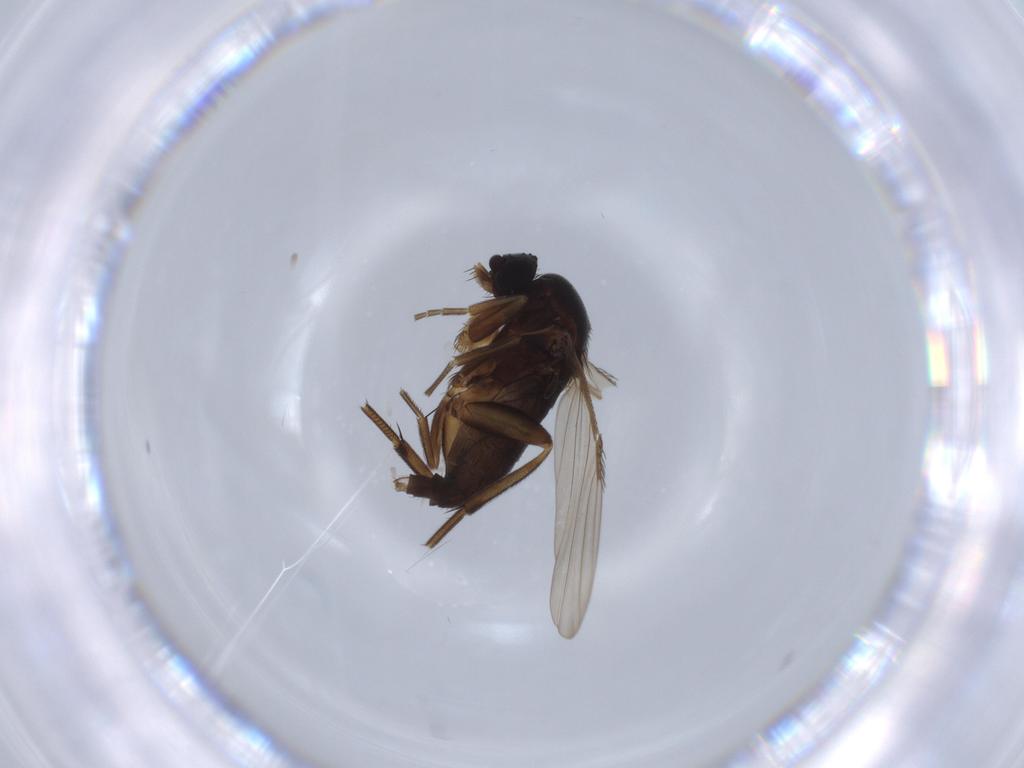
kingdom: Animalia
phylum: Arthropoda
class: Insecta
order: Diptera
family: Phoridae
